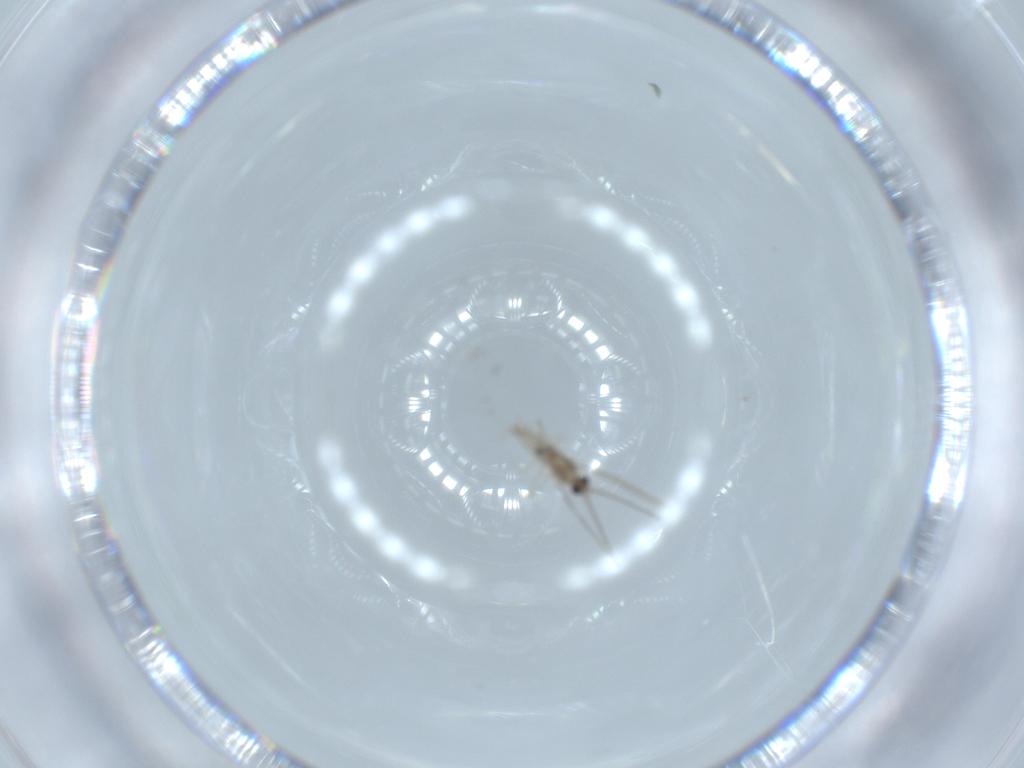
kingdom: Animalia
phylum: Arthropoda
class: Insecta
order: Diptera
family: Cecidomyiidae
